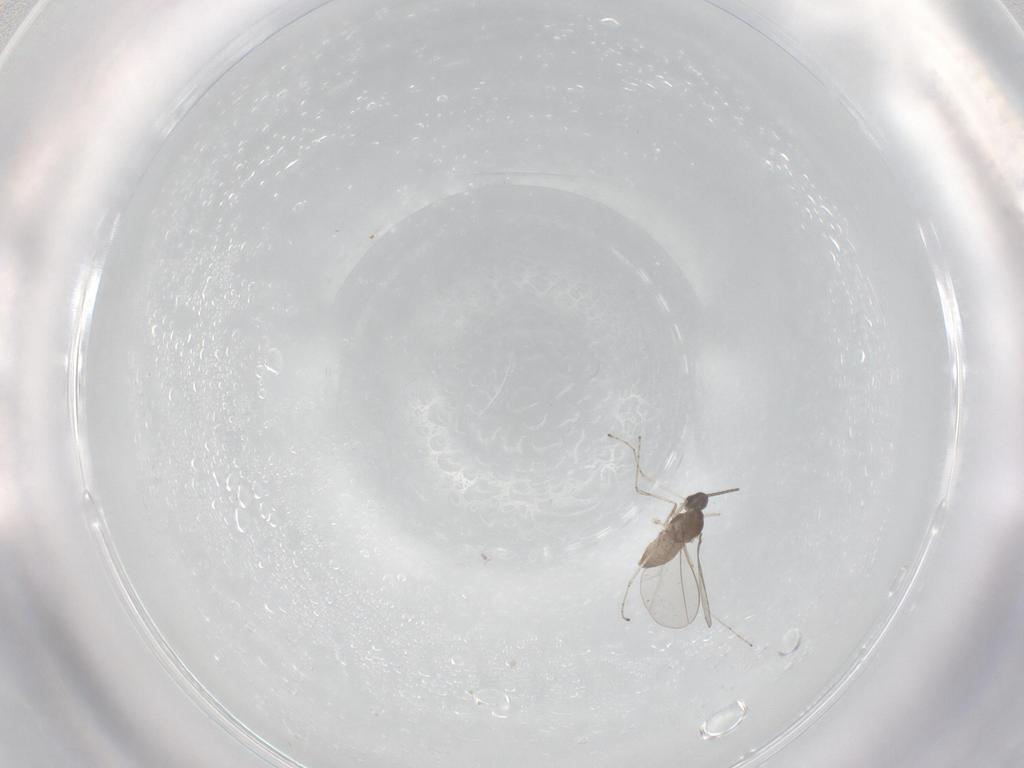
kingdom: Animalia
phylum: Arthropoda
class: Insecta
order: Diptera
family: Cecidomyiidae
